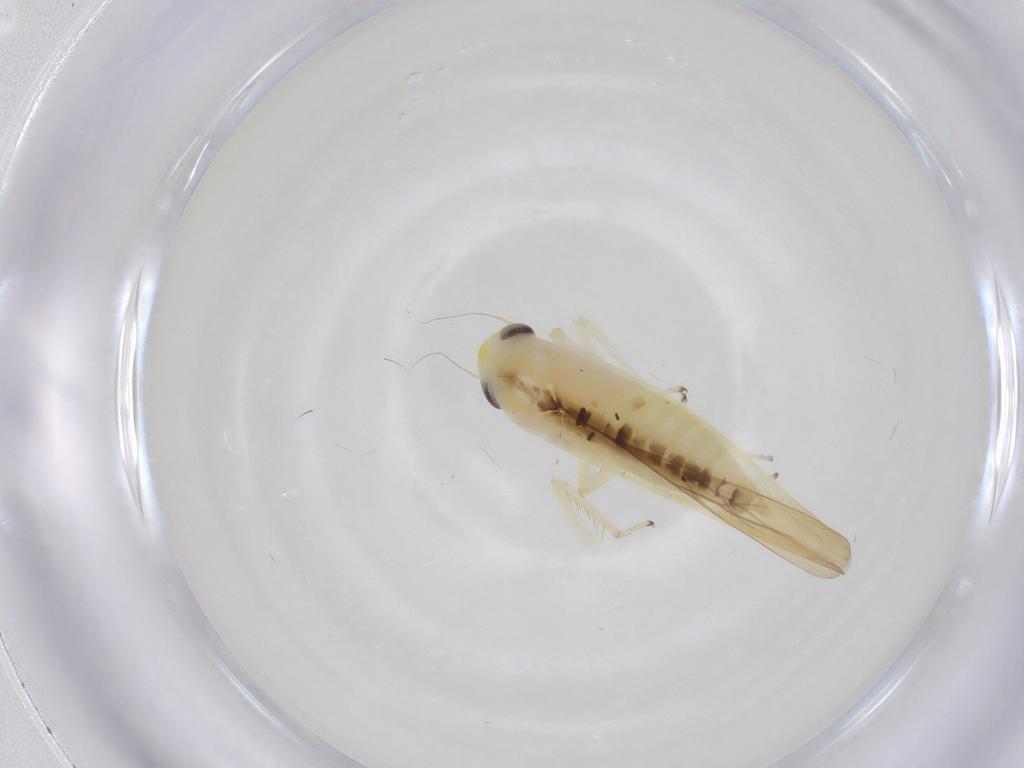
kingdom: Animalia
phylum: Arthropoda
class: Insecta
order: Hemiptera
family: Cicadellidae
